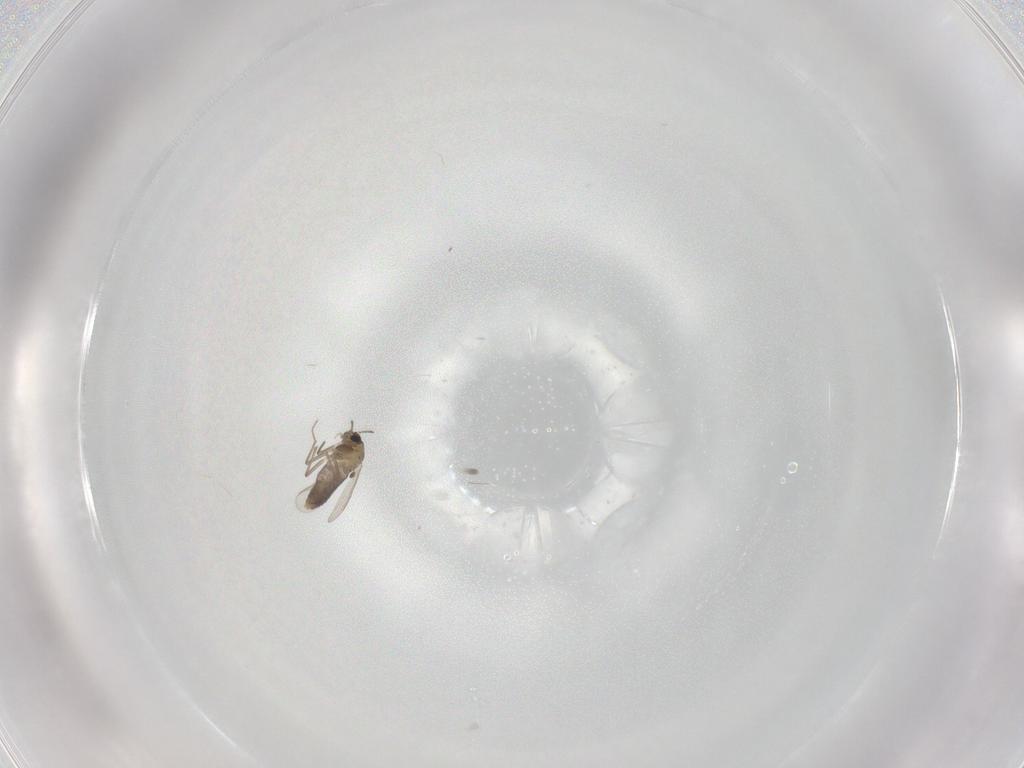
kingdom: Animalia
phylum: Arthropoda
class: Insecta
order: Diptera
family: Chironomidae
